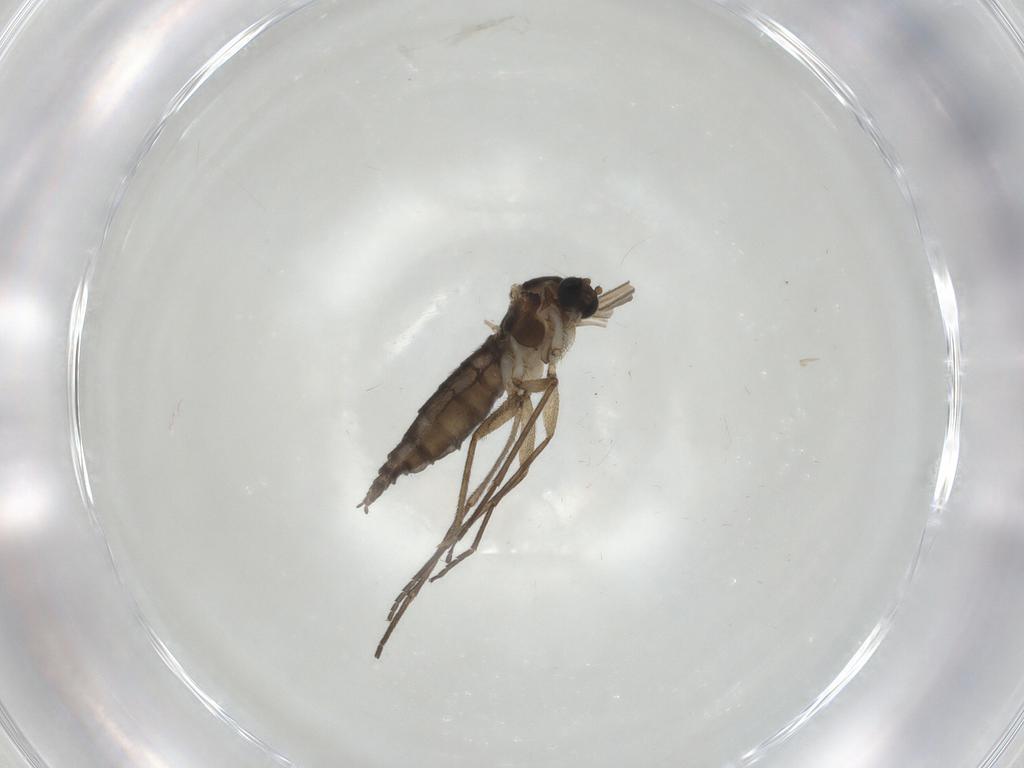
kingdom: Animalia
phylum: Arthropoda
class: Insecta
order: Diptera
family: Sciaridae
